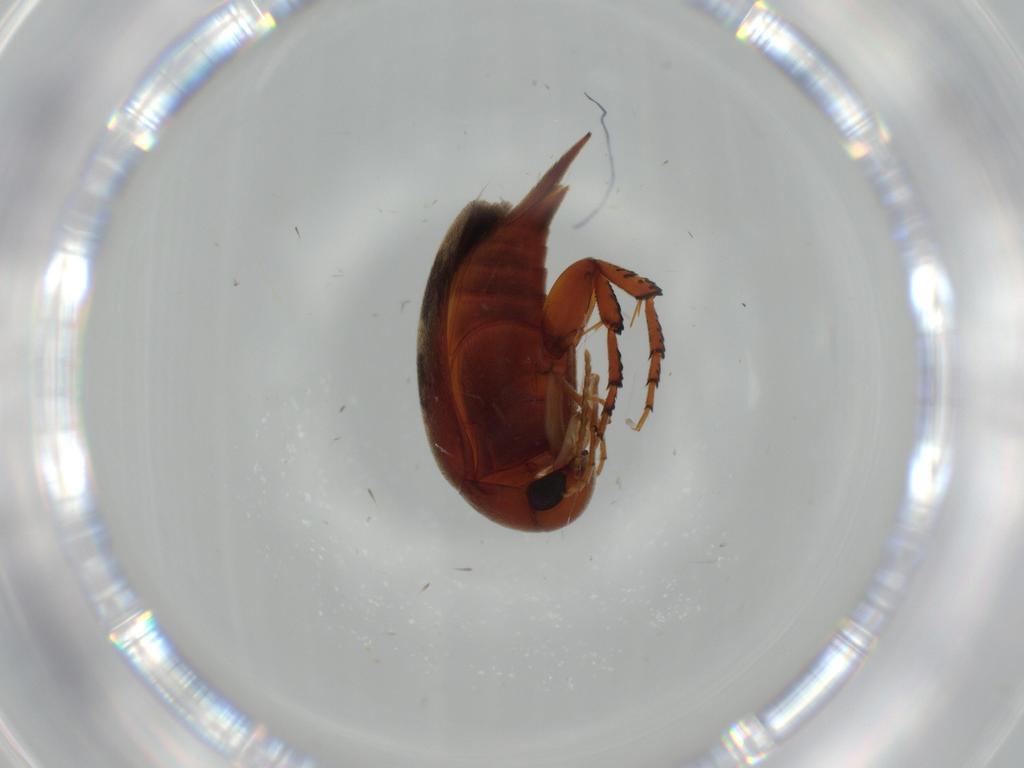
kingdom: Animalia
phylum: Arthropoda
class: Insecta
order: Coleoptera
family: Mordellidae
